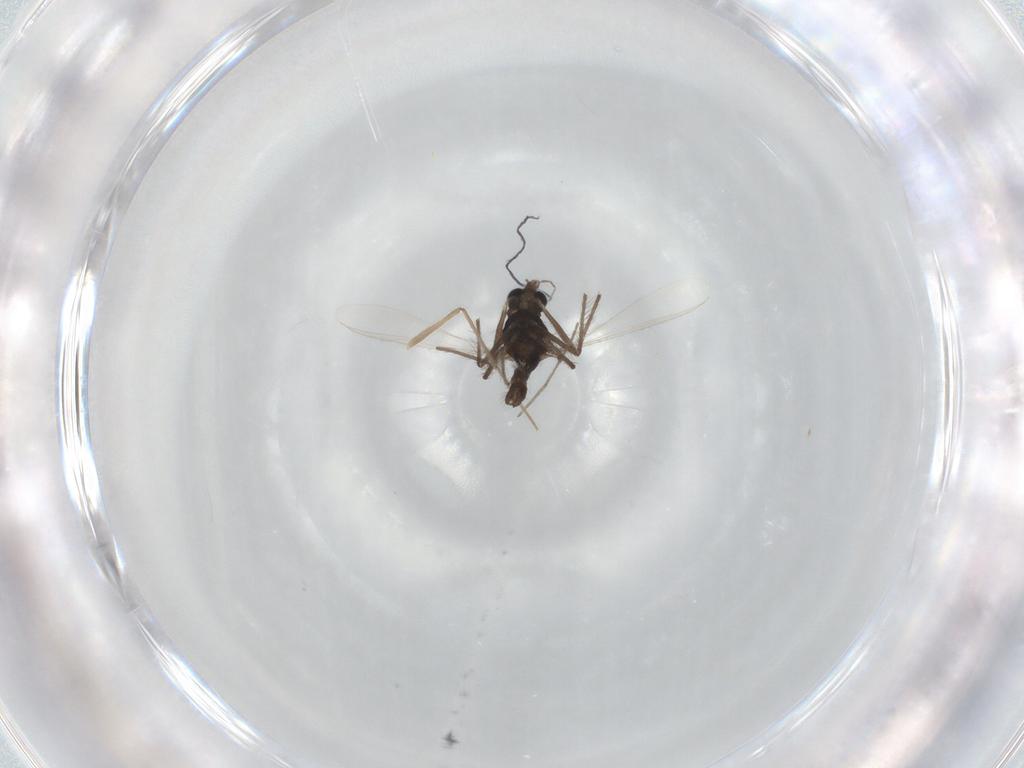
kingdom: Animalia
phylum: Arthropoda
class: Insecta
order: Diptera
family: Chironomidae
